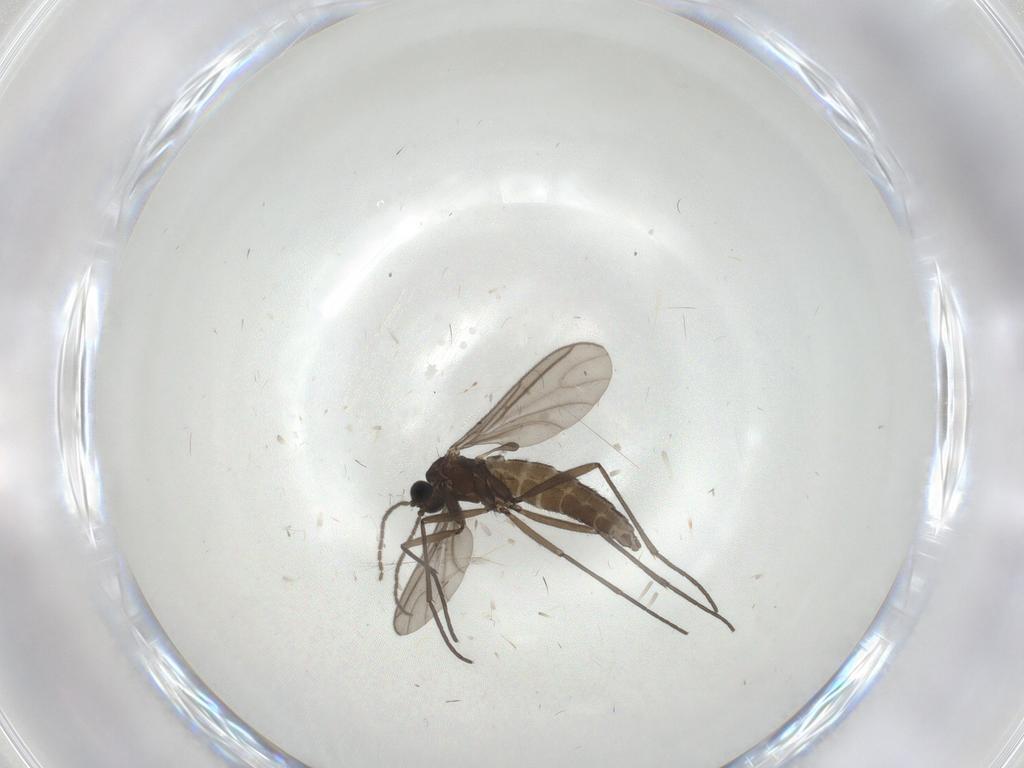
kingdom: Animalia
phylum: Arthropoda
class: Insecta
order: Diptera
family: Sciaridae
